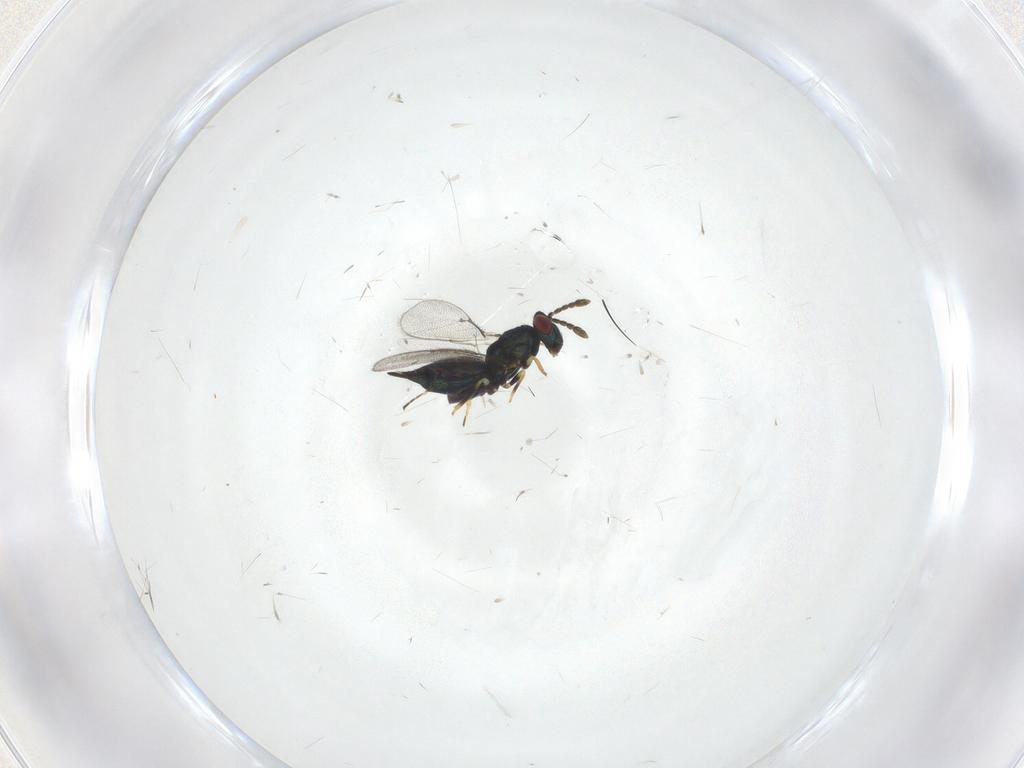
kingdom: Animalia
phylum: Arthropoda
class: Insecta
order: Hymenoptera
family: Eulophidae
